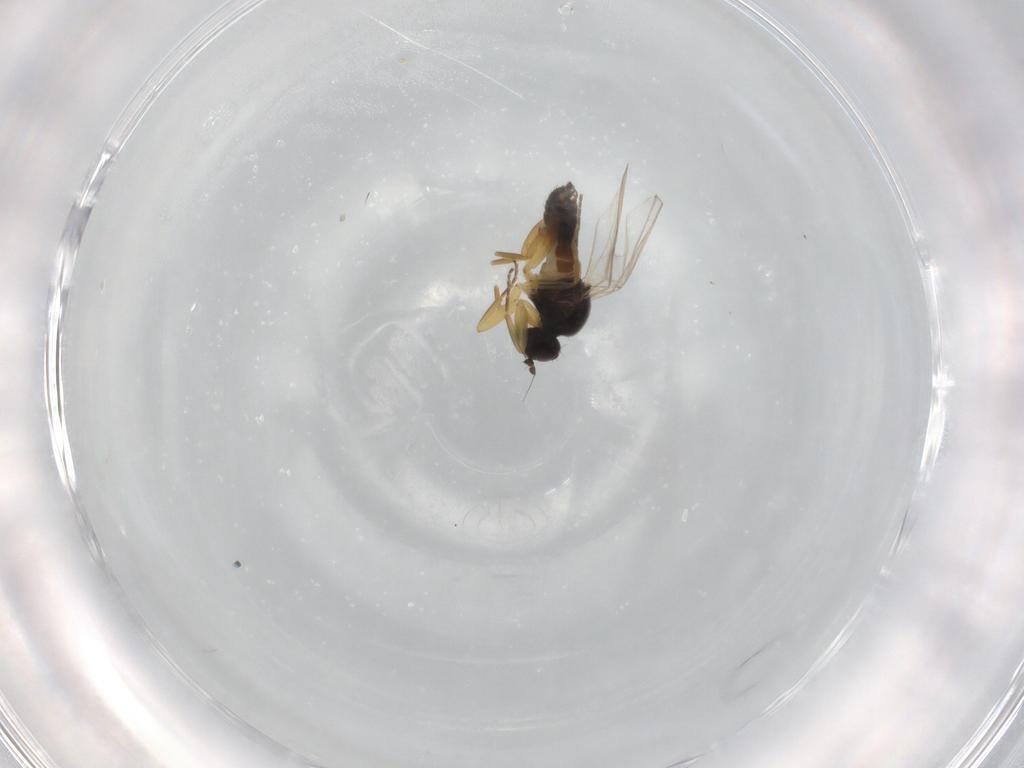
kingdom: Animalia
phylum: Arthropoda
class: Insecta
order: Diptera
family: Hybotidae
